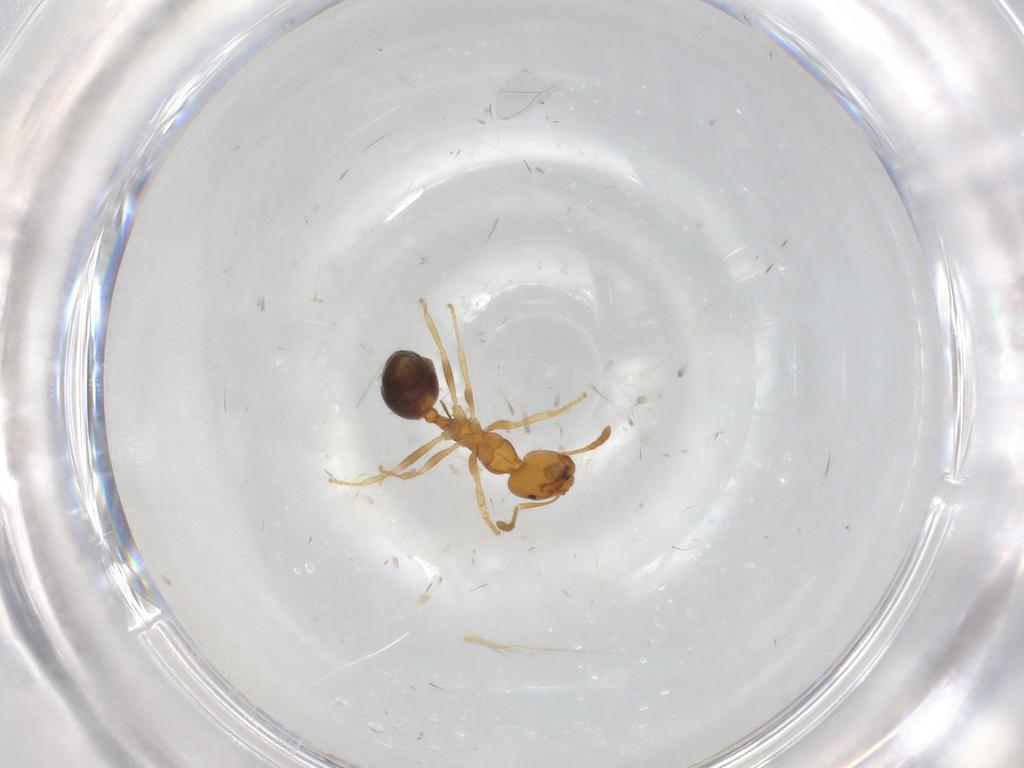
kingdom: Animalia
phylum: Arthropoda
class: Insecta
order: Hymenoptera
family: Formicidae
